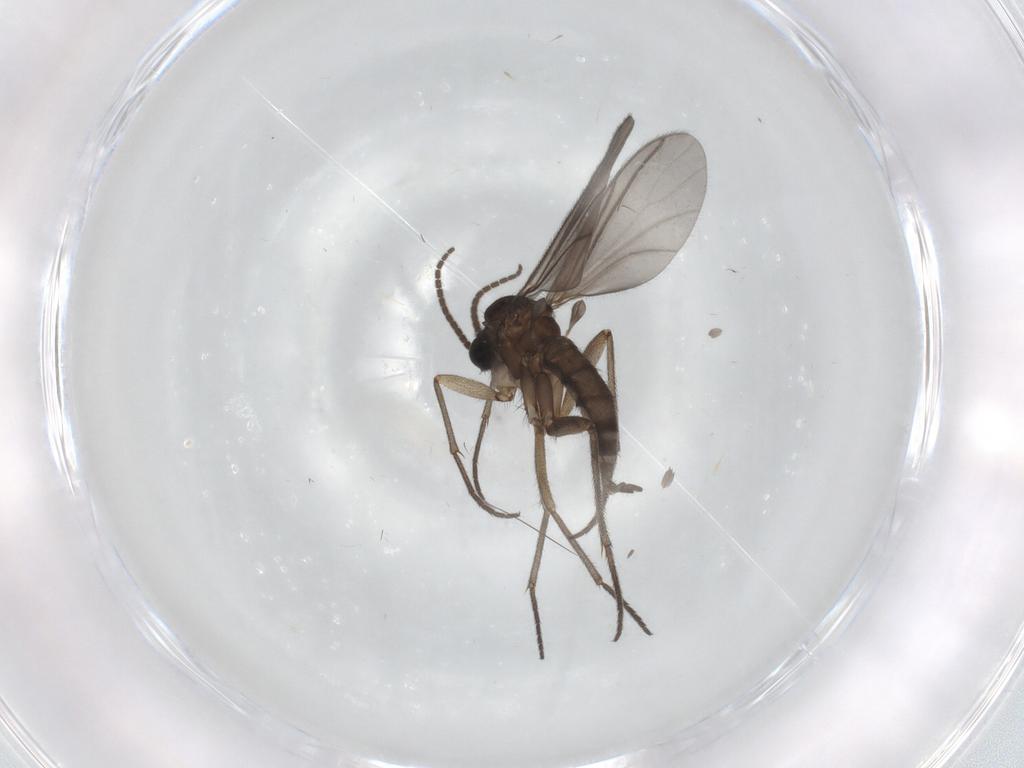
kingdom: Animalia
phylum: Arthropoda
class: Insecta
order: Diptera
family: Sciaridae
